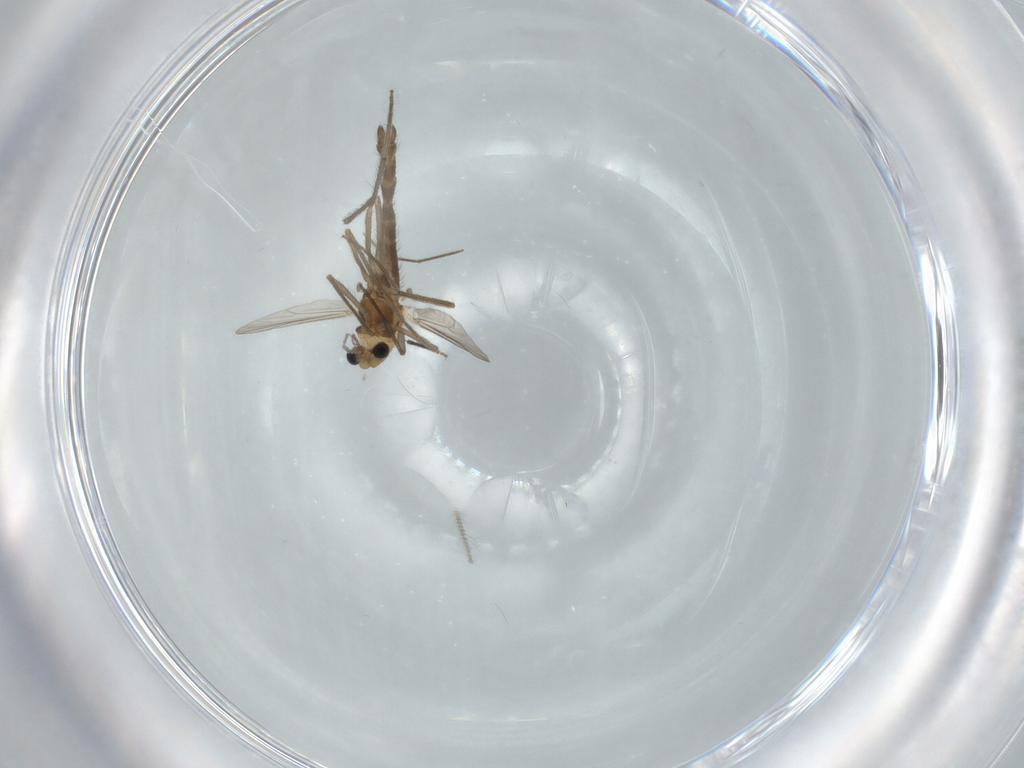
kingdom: Animalia
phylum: Arthropoda
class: Insecta
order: Diptera
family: Chironomidae
